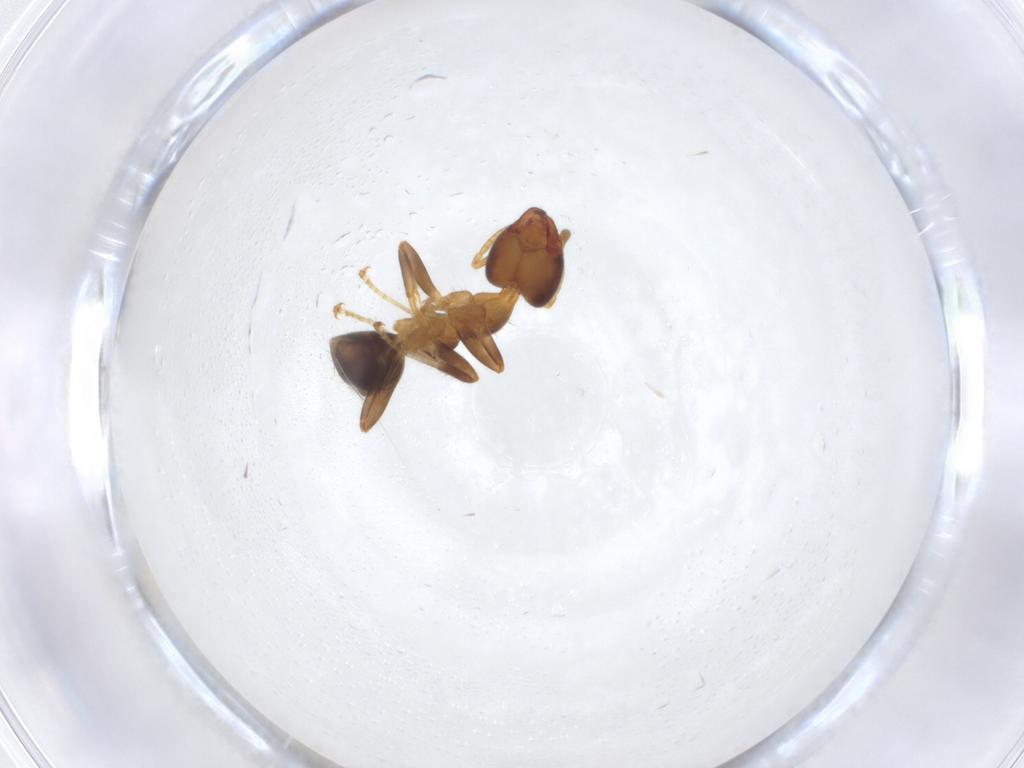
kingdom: Animalia
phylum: Arthropoda
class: Insecta
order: Hymenoptera
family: Formicidae
